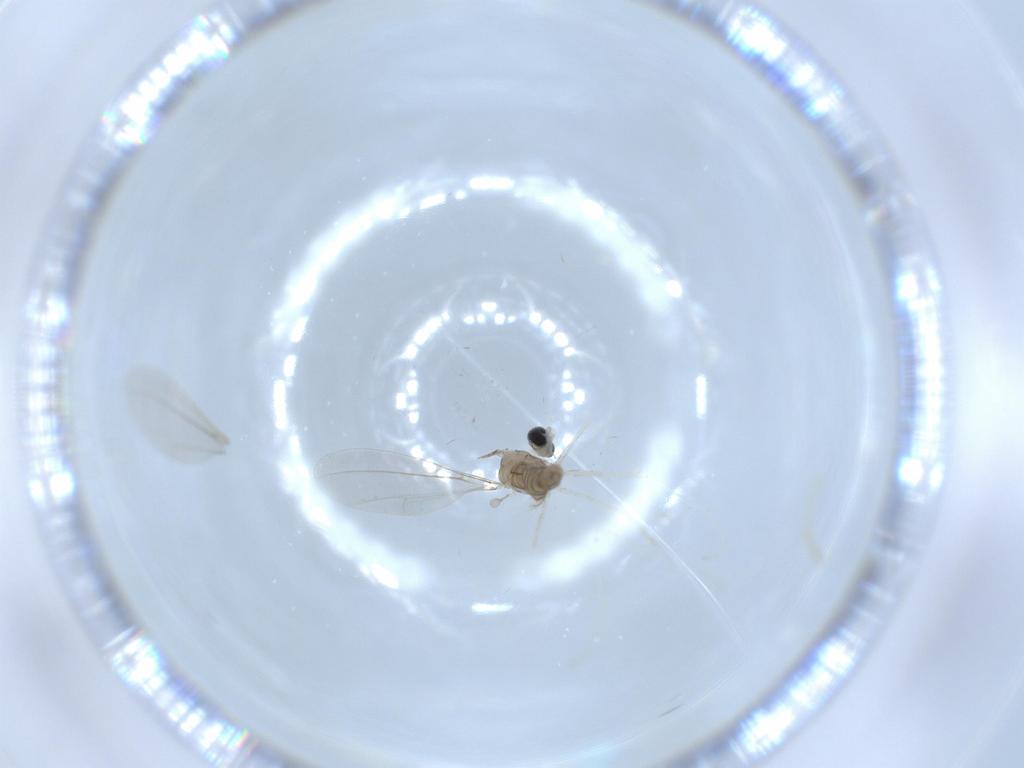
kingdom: Animalia
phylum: Arthropoda
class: Insecta
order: Diptera
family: Cecidomyiidae
